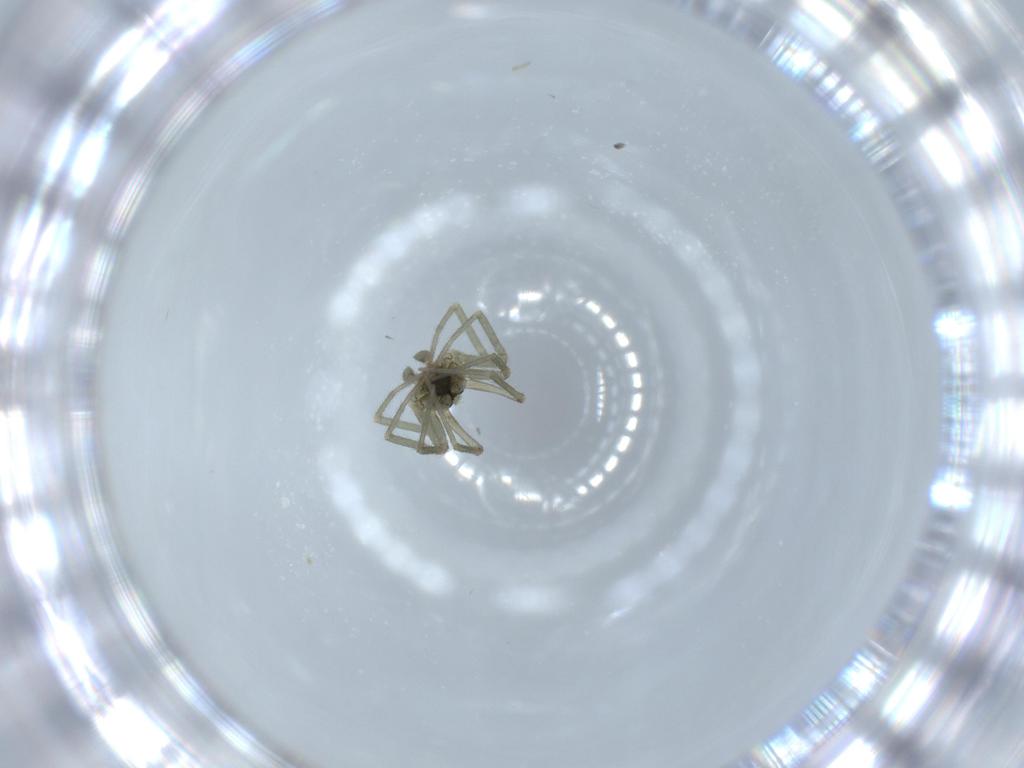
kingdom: Animalia
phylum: Arthropoda
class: Arachnida
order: Araneae
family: Linyphiidae
